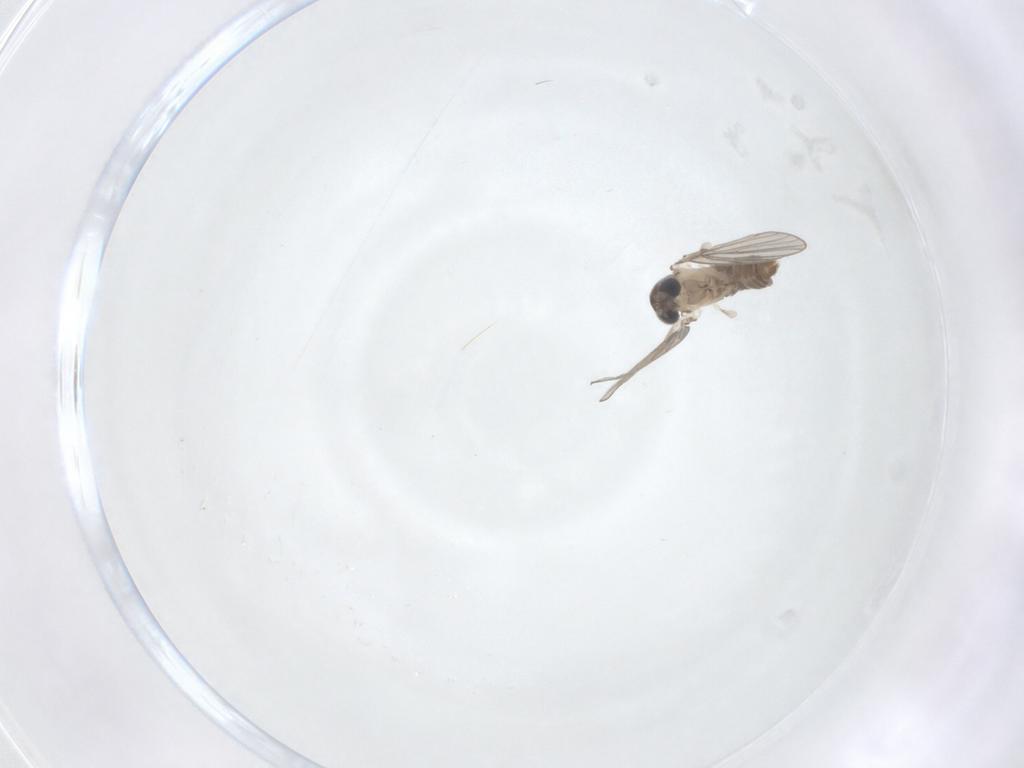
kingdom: Animalia
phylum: Arthropoda
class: Insecta
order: Diptera
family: Psychodidae
